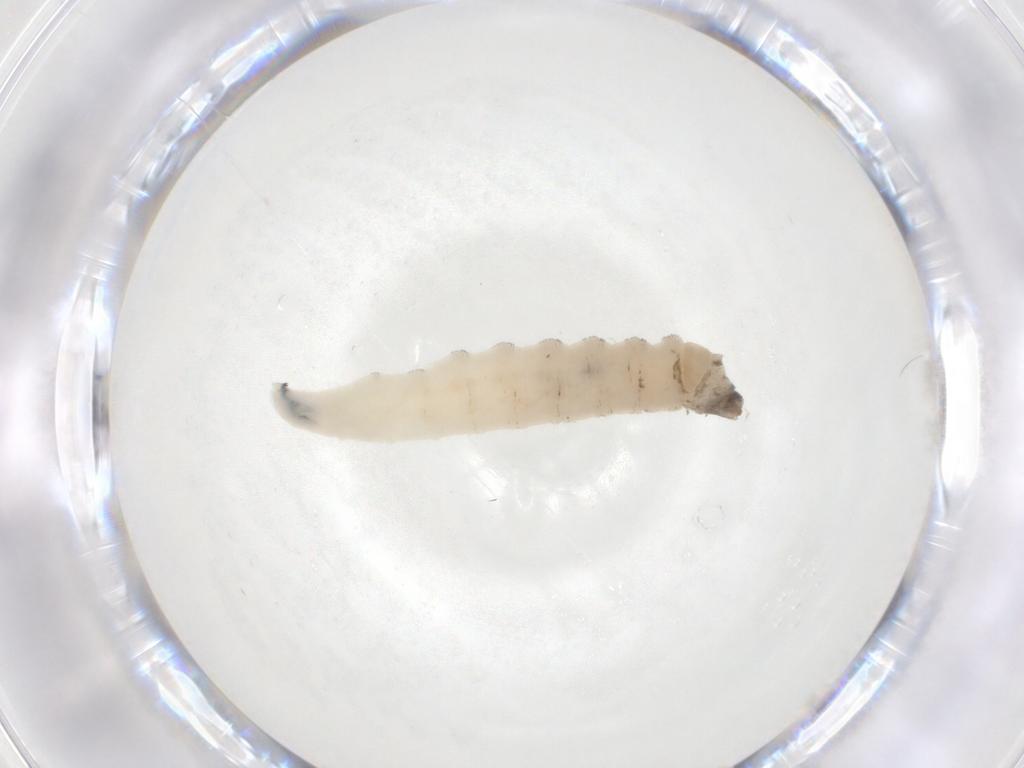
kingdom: Animalia
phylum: Arthropoda
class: Insecta
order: Diptera
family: Drosophilidae
